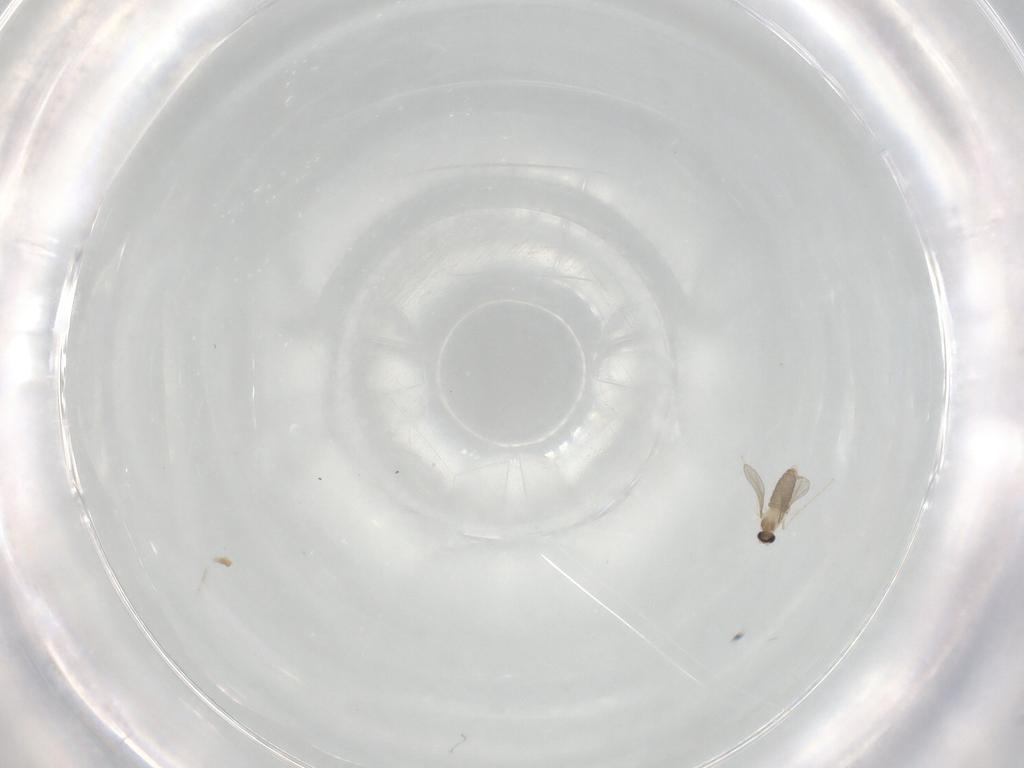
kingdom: Animalia
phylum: Arthropoda
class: Insecta
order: Diptera
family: Cecidomyiidae
